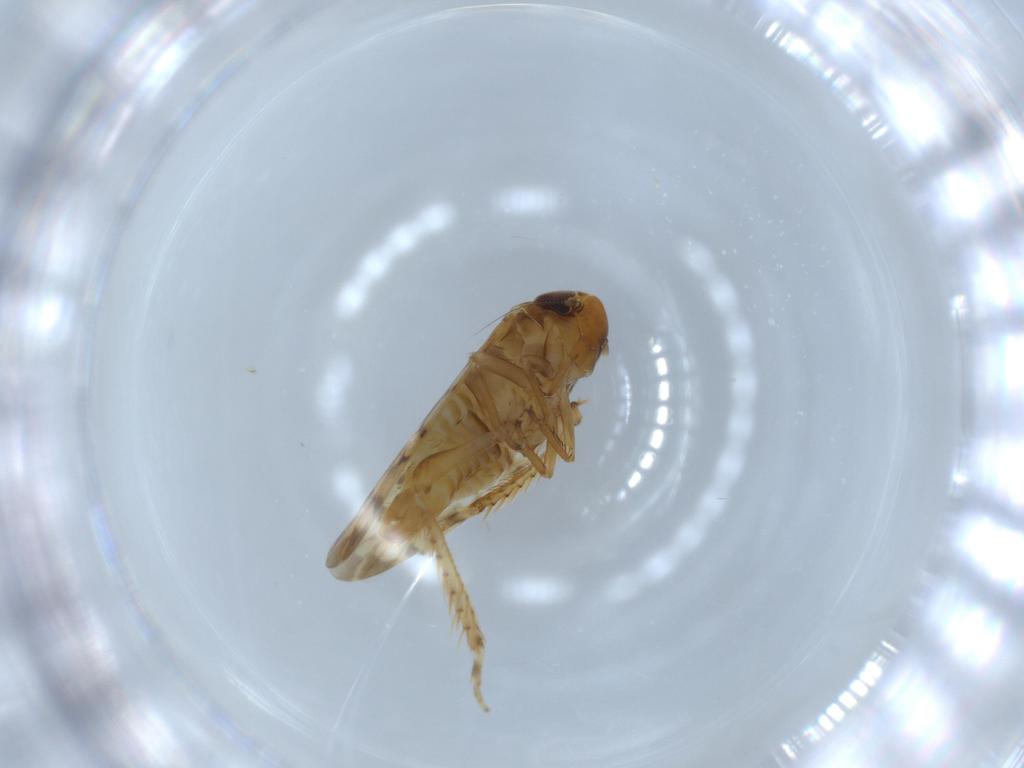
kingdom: Animalia
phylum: Arthropoda
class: Insecta
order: Hemiptera
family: Cicadellidae
